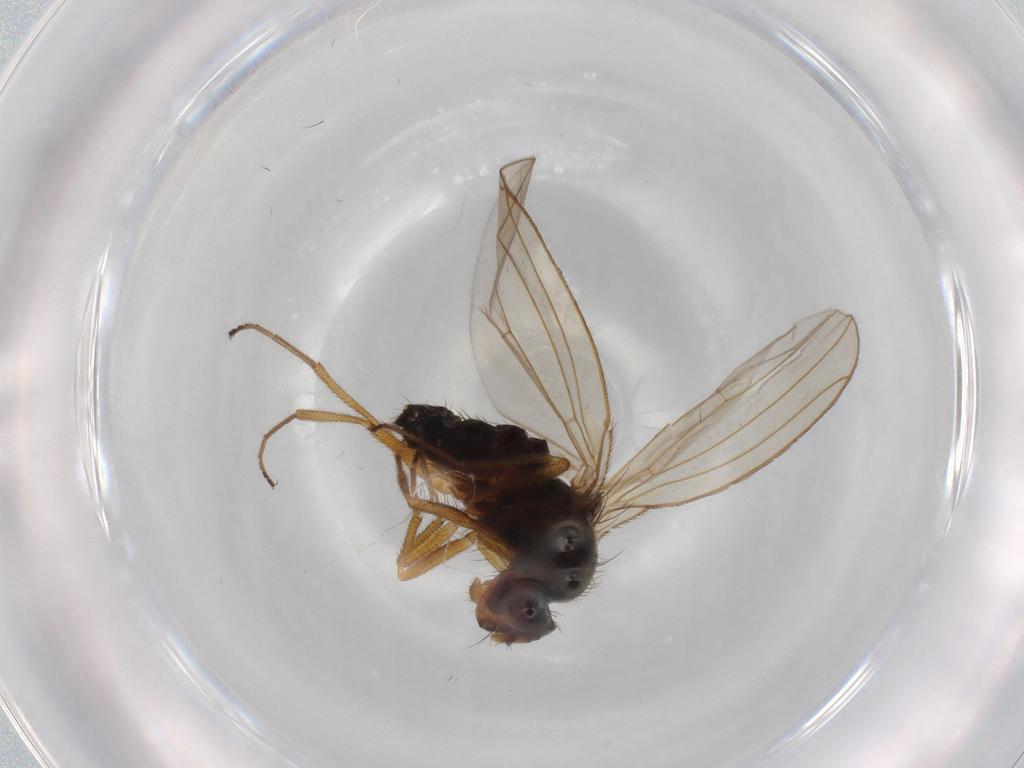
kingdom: Animalia
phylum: Arthropoda
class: Insecta
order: Diptera
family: Drosophilidae
